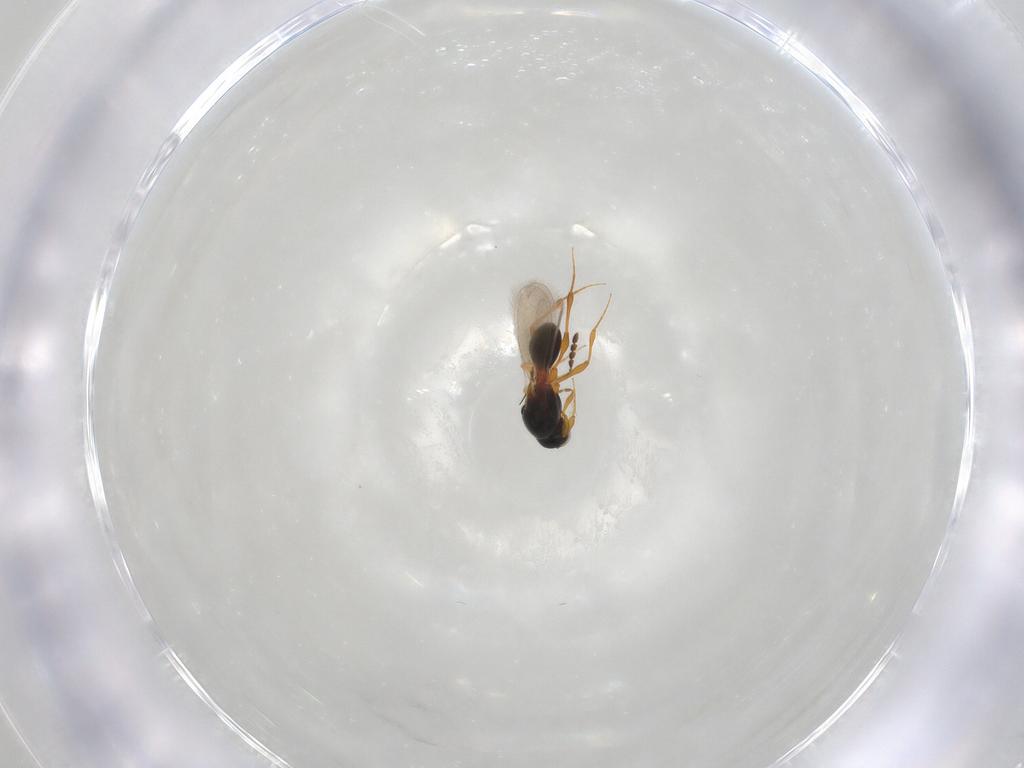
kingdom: Animalia
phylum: Arthropoda
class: Insecta
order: Hymenoptera
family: Platygastridae
